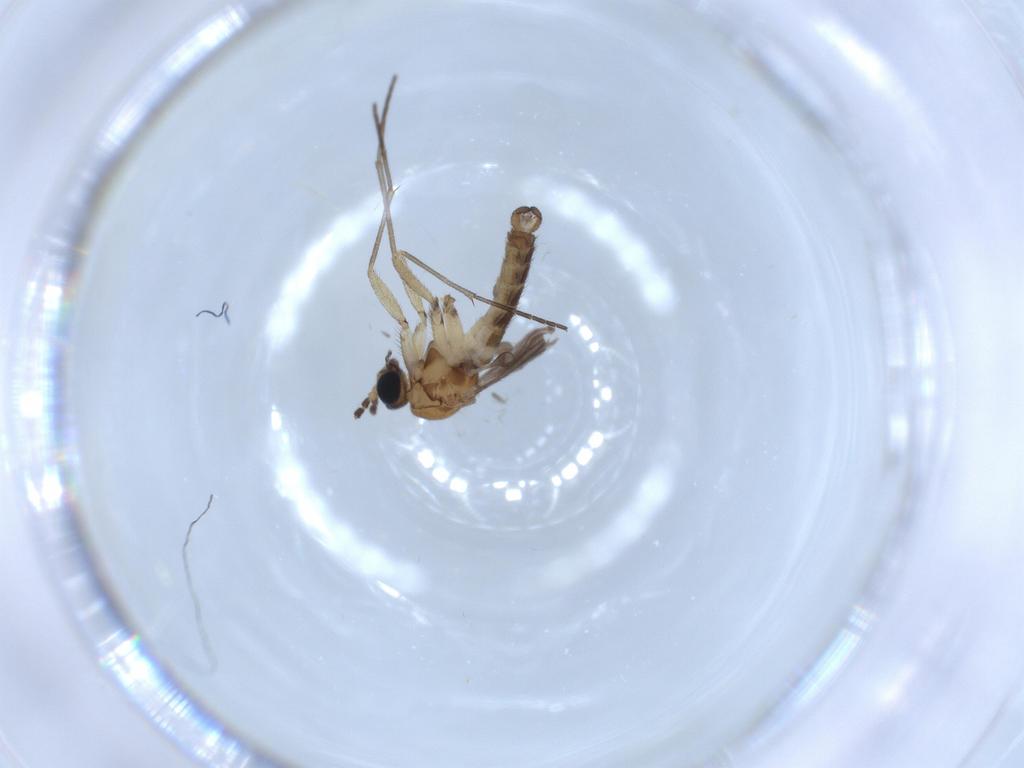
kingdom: Animalia
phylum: Arthropoda
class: Insecta
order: Diptera
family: Drosophilidae
